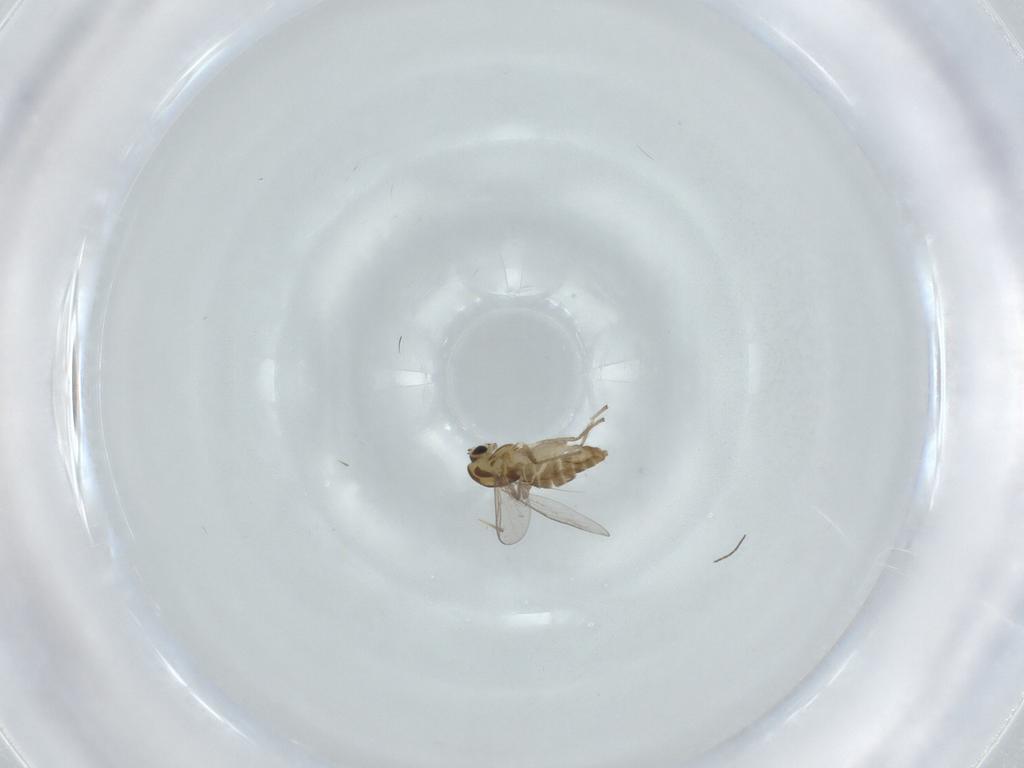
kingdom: Animalia
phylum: Arthropoda
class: Insecta
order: Diptera
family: Chironomidae
